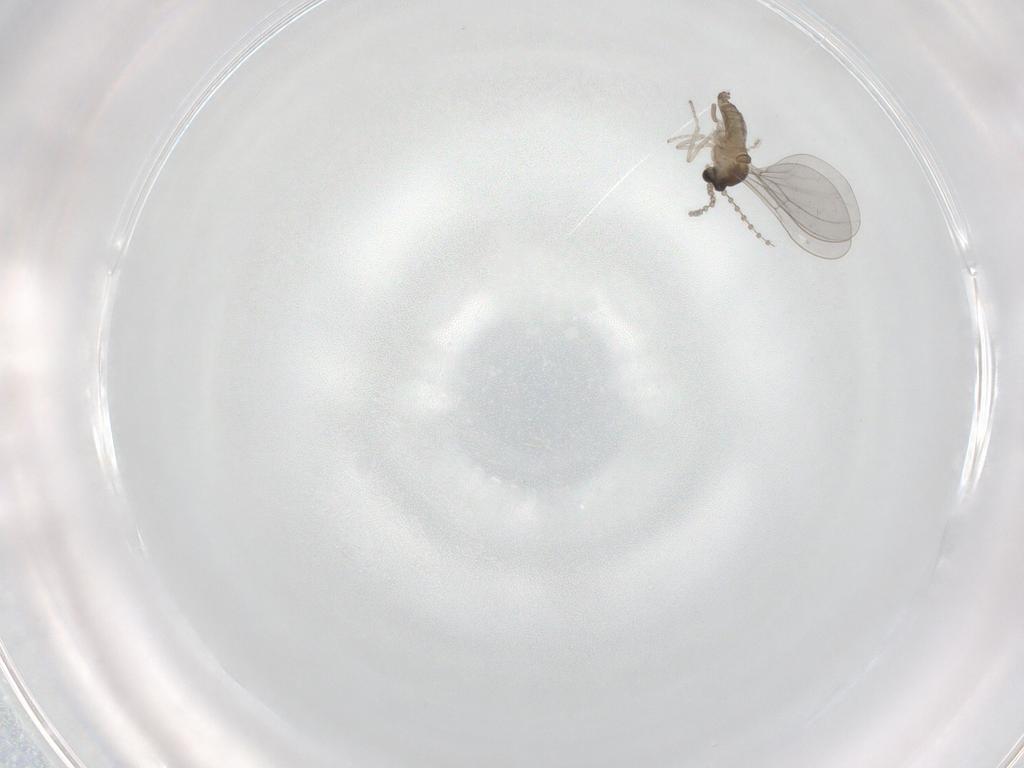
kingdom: Animalia
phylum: Arthropoda
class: Insecta
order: Diptera
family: Cecidomyiidae
